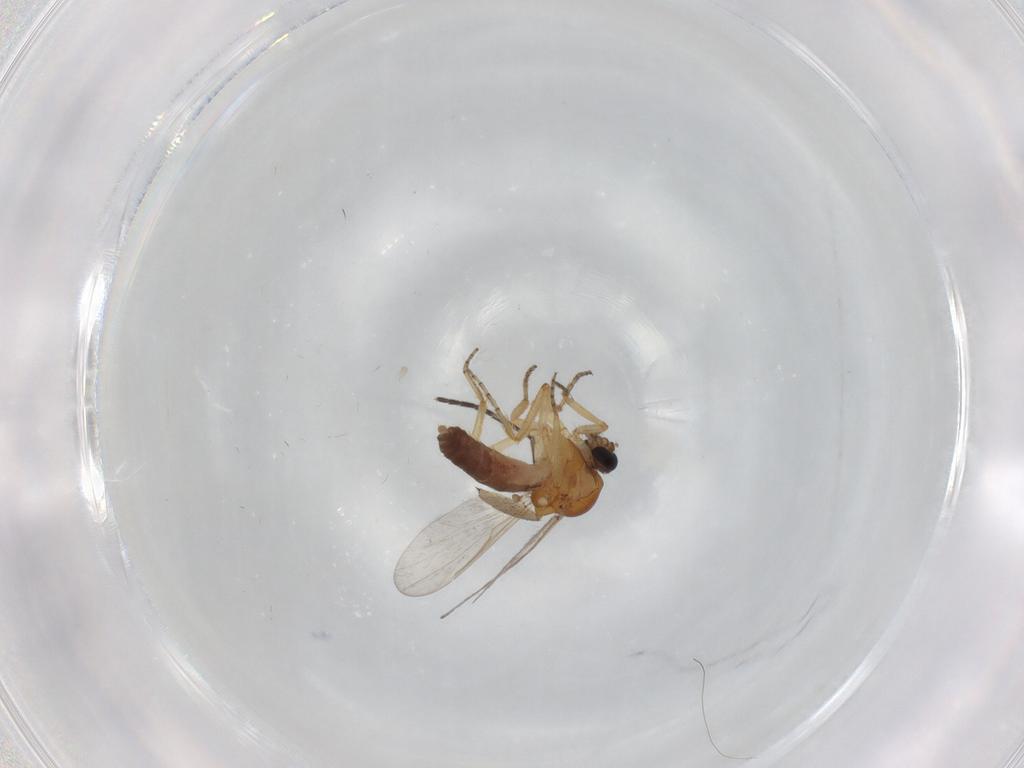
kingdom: Animalia
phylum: Arthropoda
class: Insecta
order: Diptera
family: Ceratopogonidae
